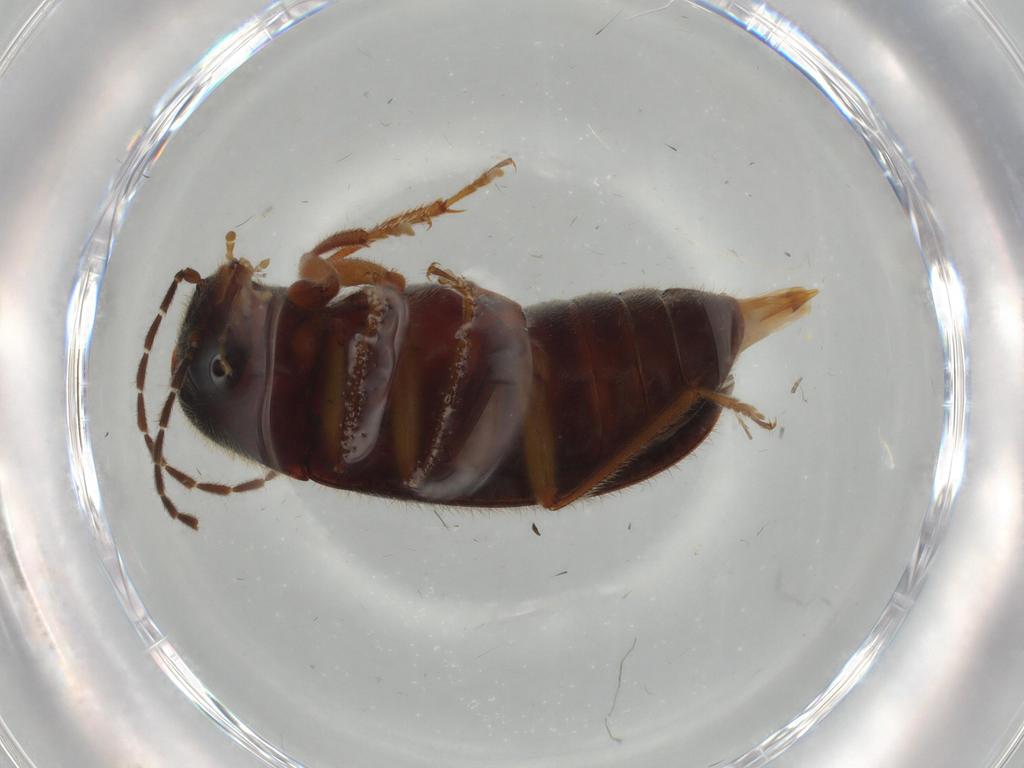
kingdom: Animalia
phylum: Arthropoda
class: Insecta
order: Coleoptera
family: Ptilodactylidae
